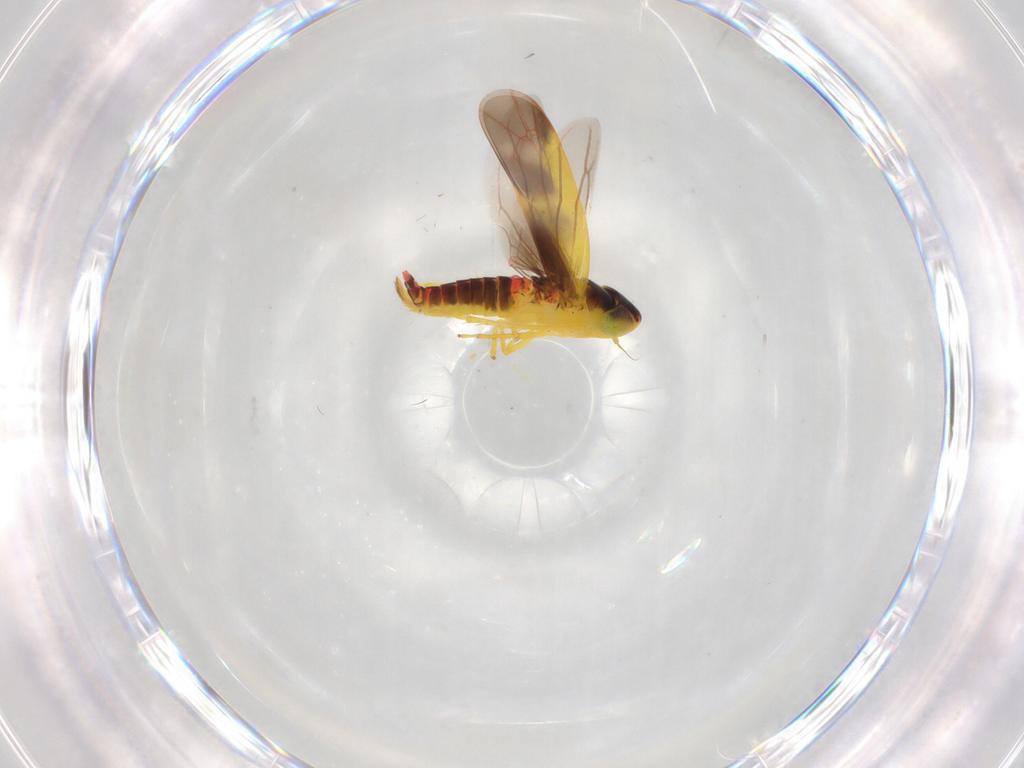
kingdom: Animalia
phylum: Arthropoda
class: Insecta
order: Hemiptera
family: Cicadellidae
